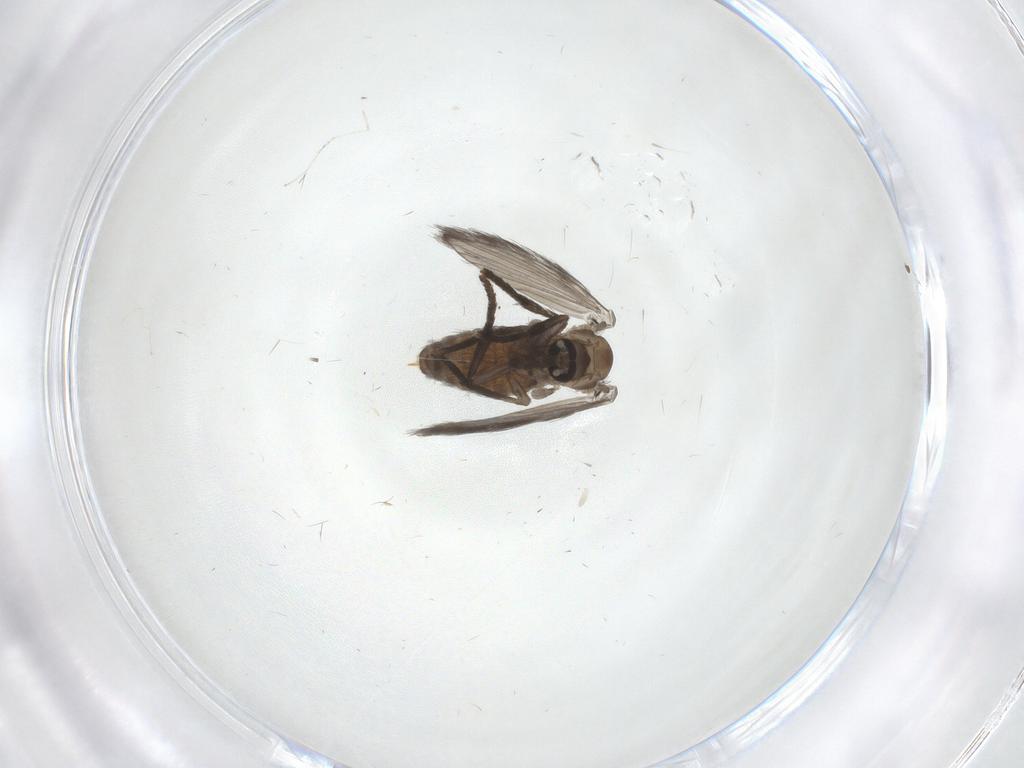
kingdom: Animalia
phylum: Arthropoda
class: Insecta
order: Diptera
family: Psychodidae
